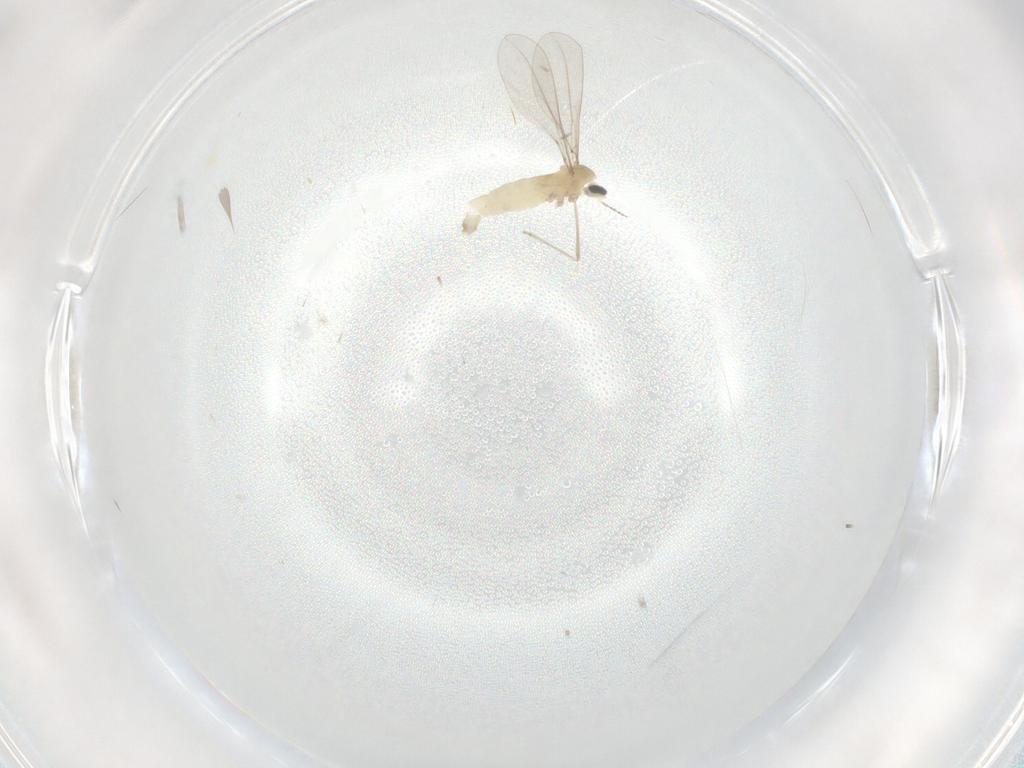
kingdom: Animalia
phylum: Arthropoda
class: Insecta
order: Diptera
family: Cecidomyiidae
